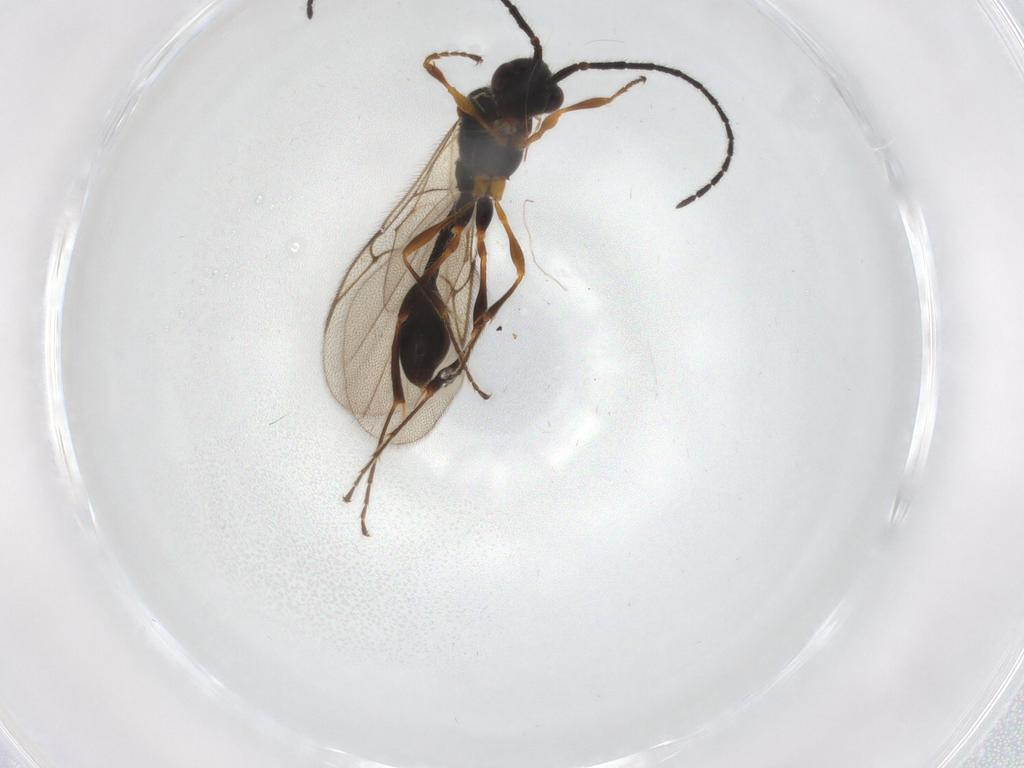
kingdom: Animalia
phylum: Arthropoda
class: Insecta
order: Hymenoptera
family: Diapriidae
